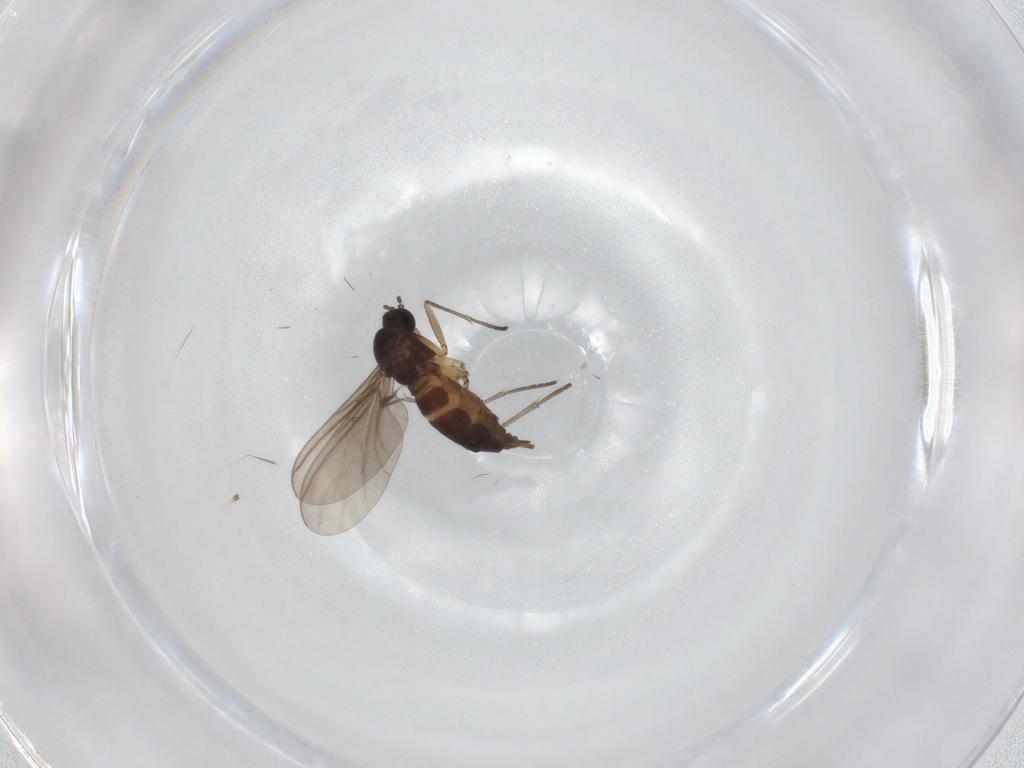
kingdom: Animalia
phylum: Arthropoda
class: Insecta
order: Diptera
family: Sciaridae
